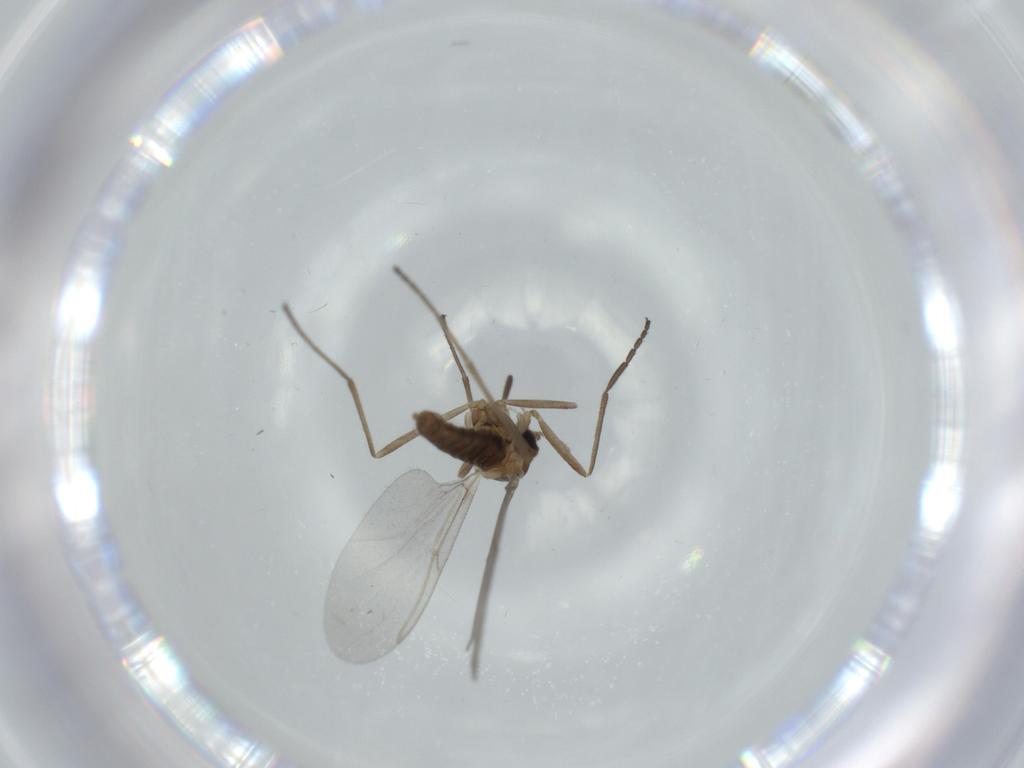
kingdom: Animalia
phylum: Arthropoda
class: Insecta
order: Diptera
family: Cecidomyiidae
